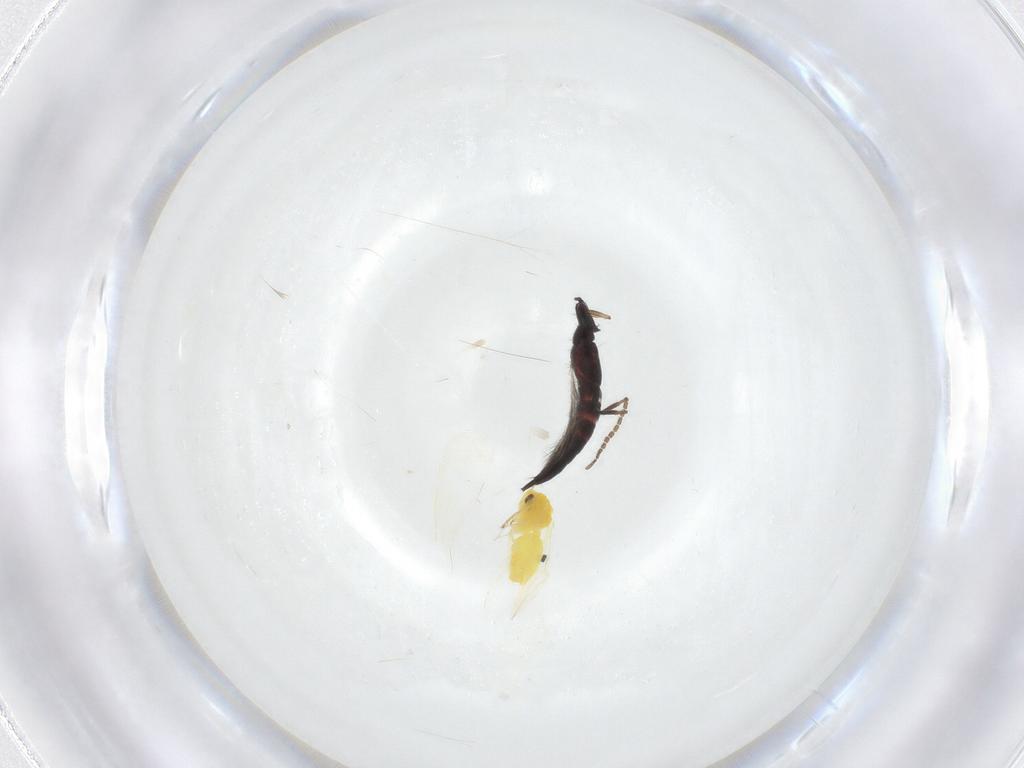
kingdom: Animalia
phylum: Arthropoda
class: Insecta
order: Thysanoptera
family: Phlaeothripidae
